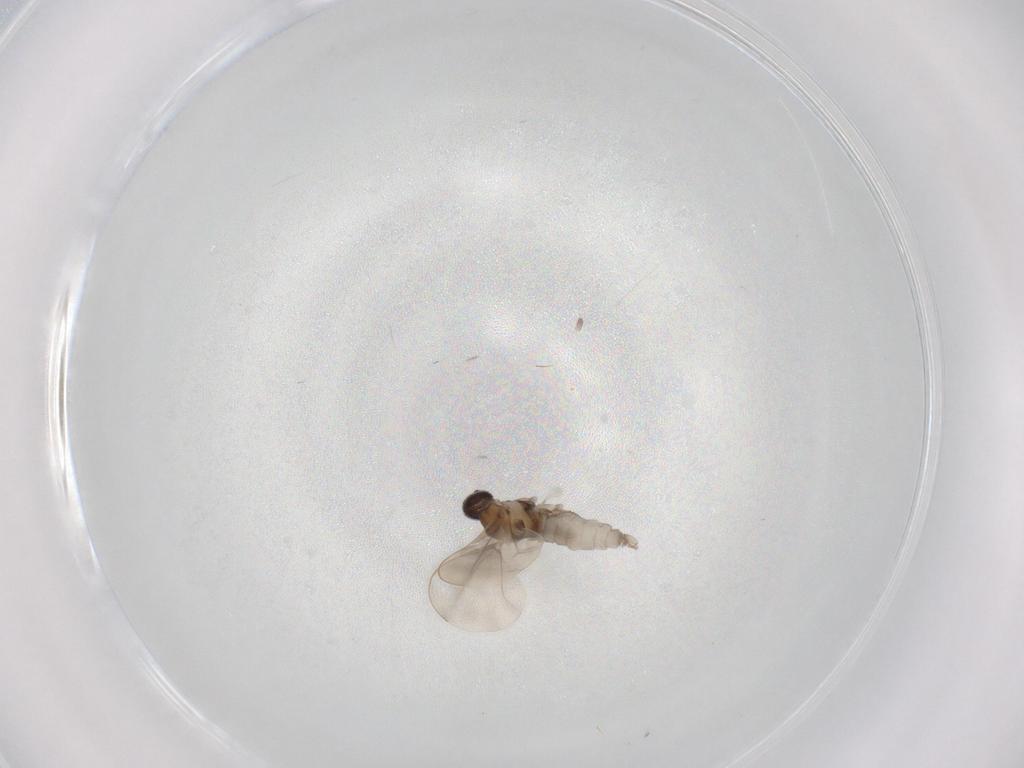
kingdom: Animalia
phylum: Arthropoda
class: Insecta
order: Diptera
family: Cecidomyiidae
